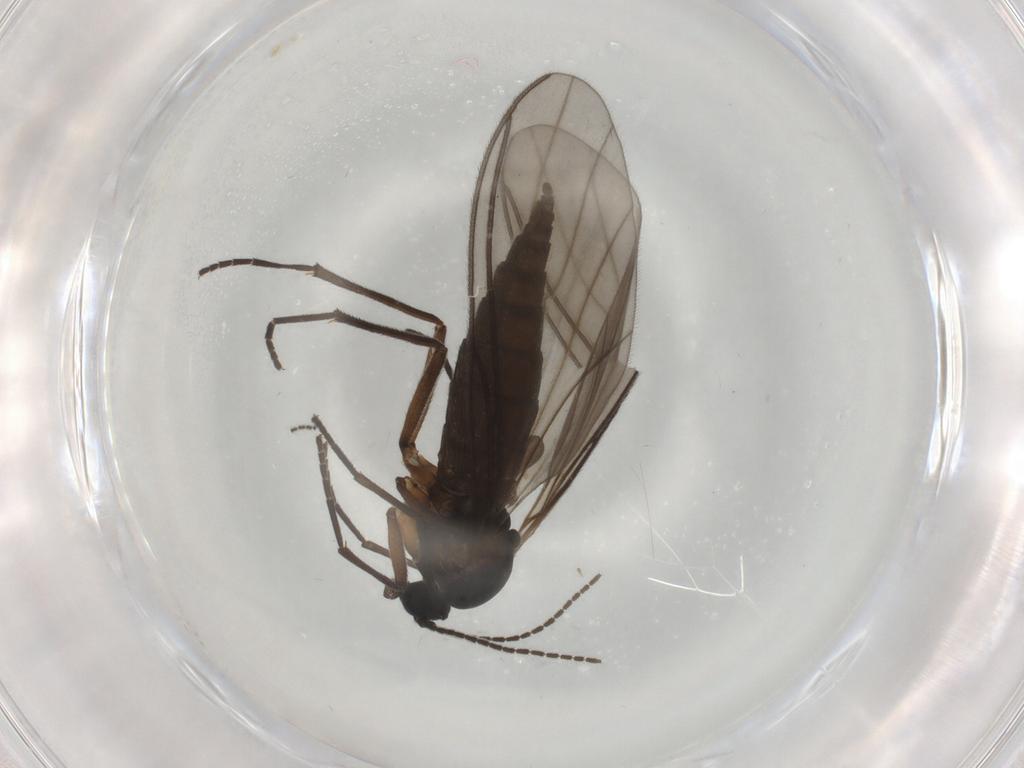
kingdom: Animalia
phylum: Arthropoda
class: Insecta
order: Diptera
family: Sciaridae
